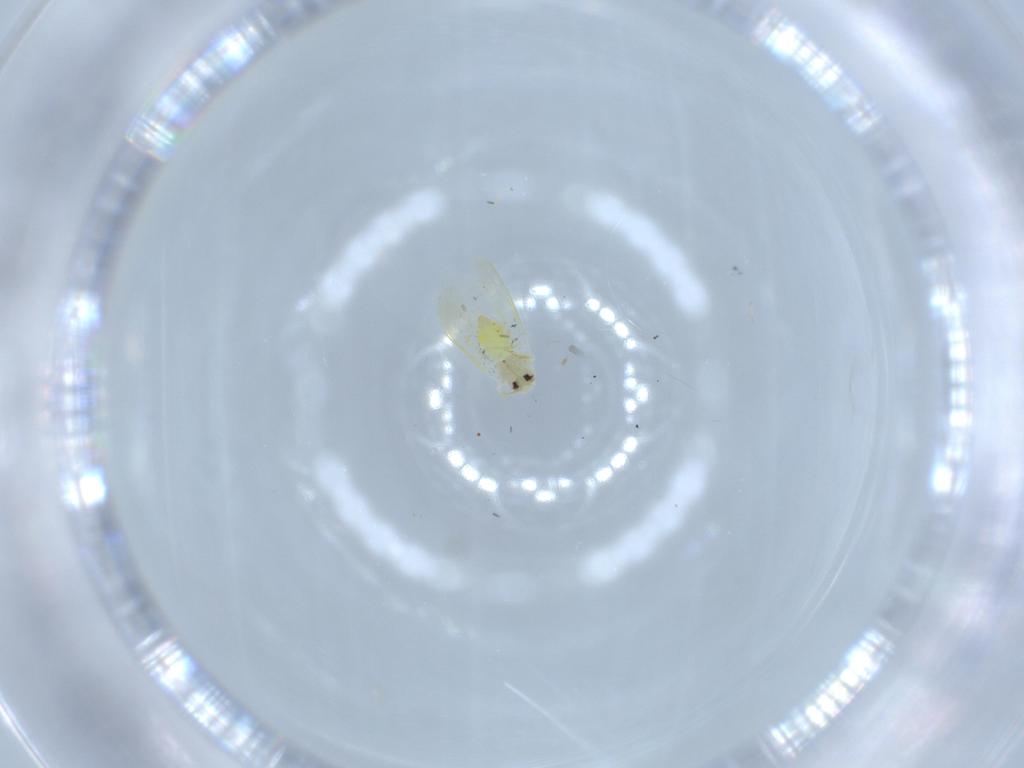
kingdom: Animalia
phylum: Arthropoda
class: Insecta
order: Hemiptera
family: Aleyrodidae
